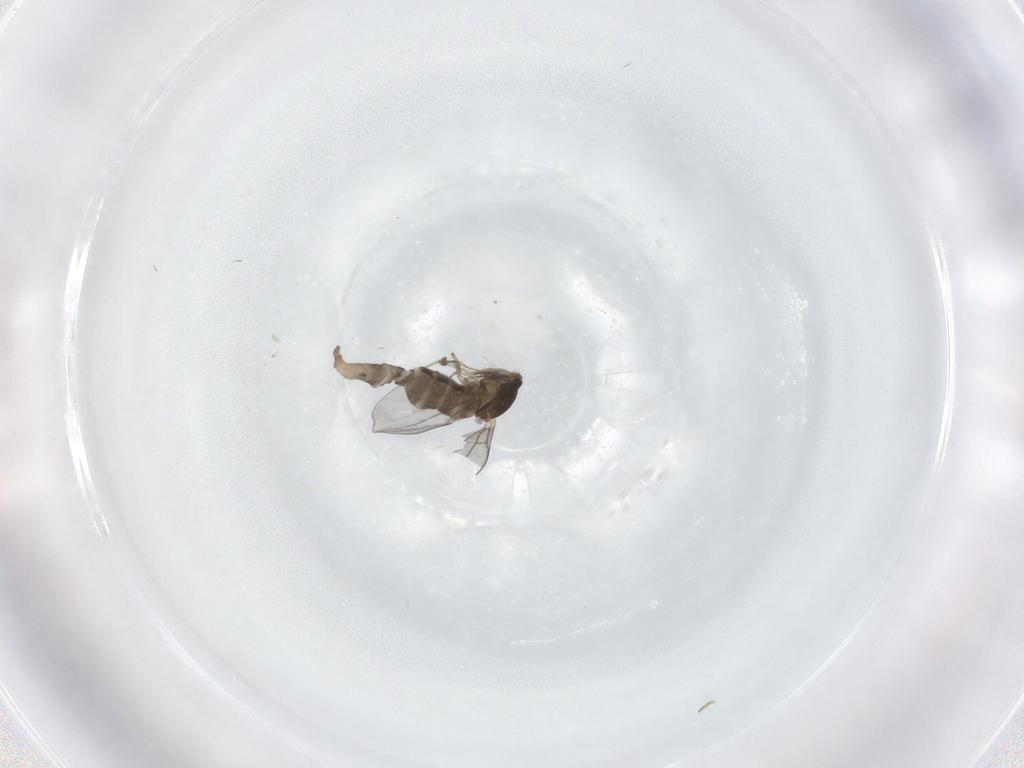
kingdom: Animalia
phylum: Arthropoda
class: Insecta
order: Diptera
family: Cecidomyiidae
